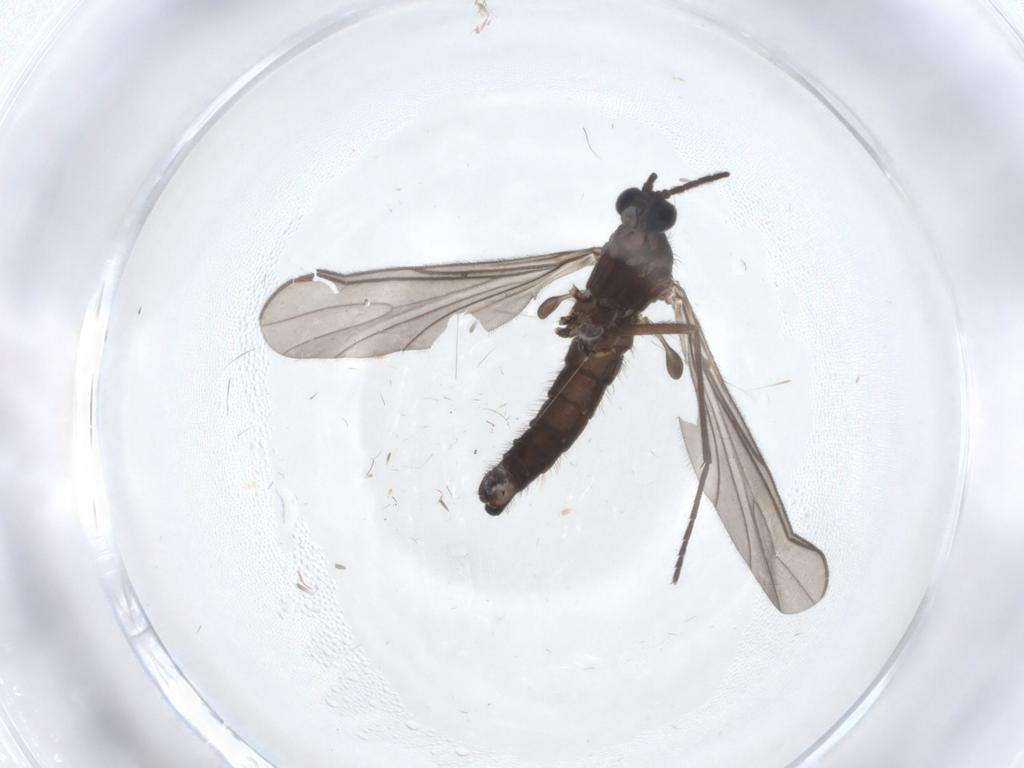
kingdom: Animalia
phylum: Arthropoda
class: Insecta
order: Diptera
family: Sciaridae
